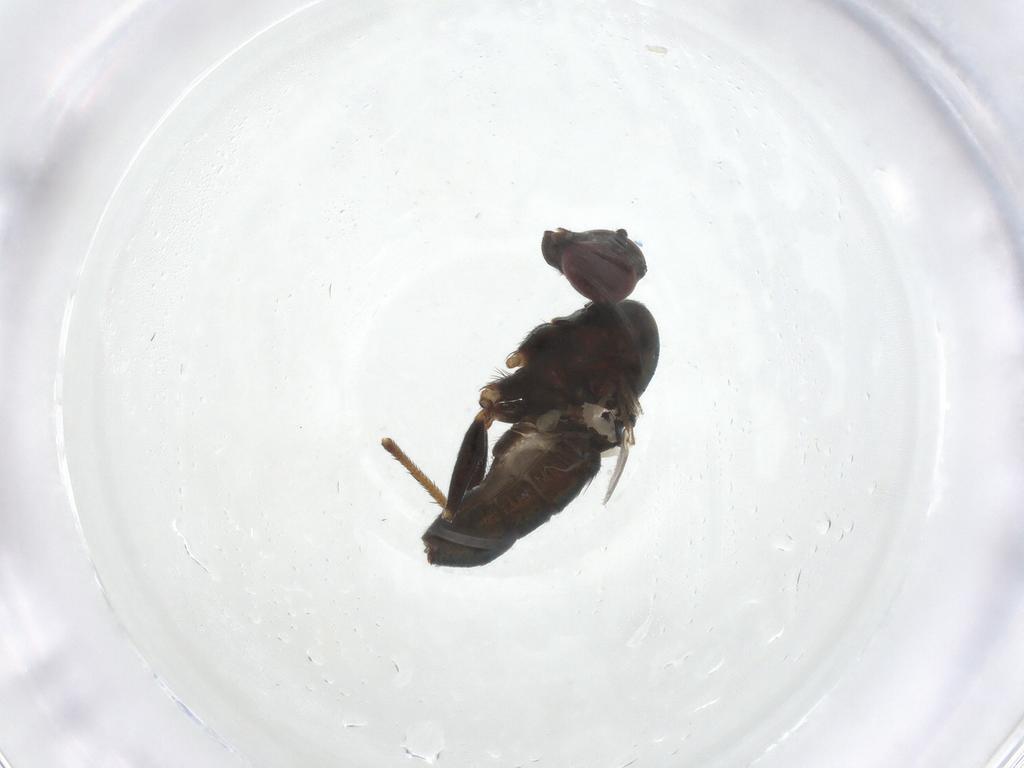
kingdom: Animalia
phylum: Arthropoda
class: Insecta
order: Diptera
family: Dolichopodidae
